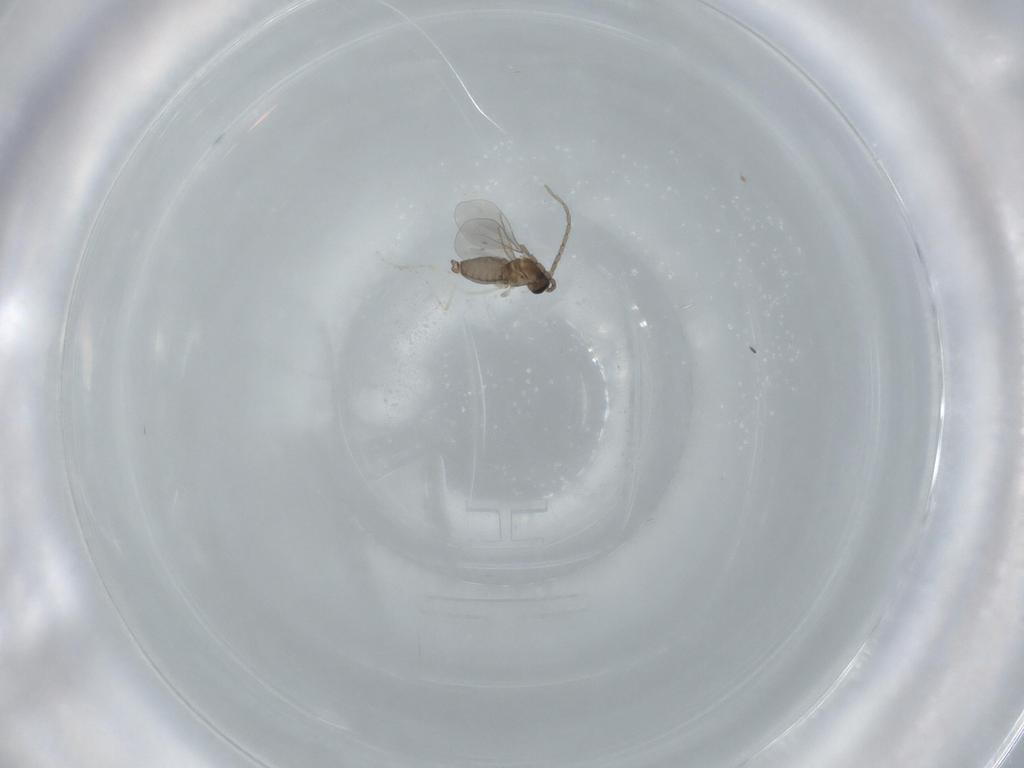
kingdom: Animalia
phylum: Arthropoda
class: Insecta
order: Diptera
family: Cecidomyiidae
